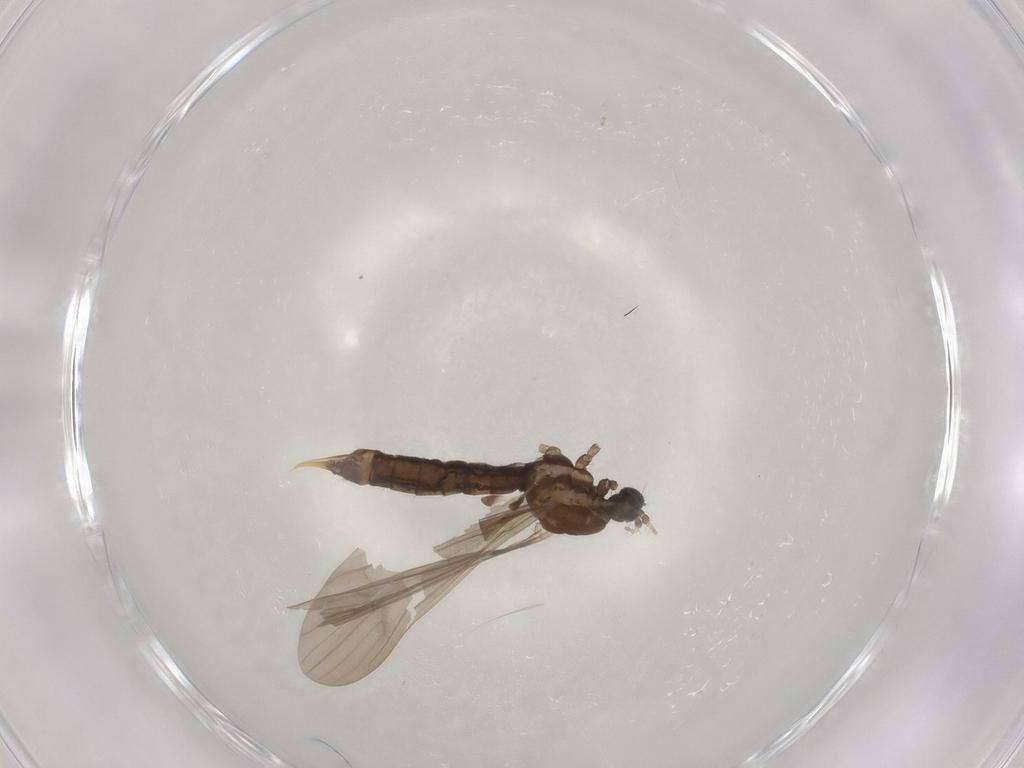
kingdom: Animalia
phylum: Arthropoda
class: Insecta
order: Diptera
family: Limoniidae
